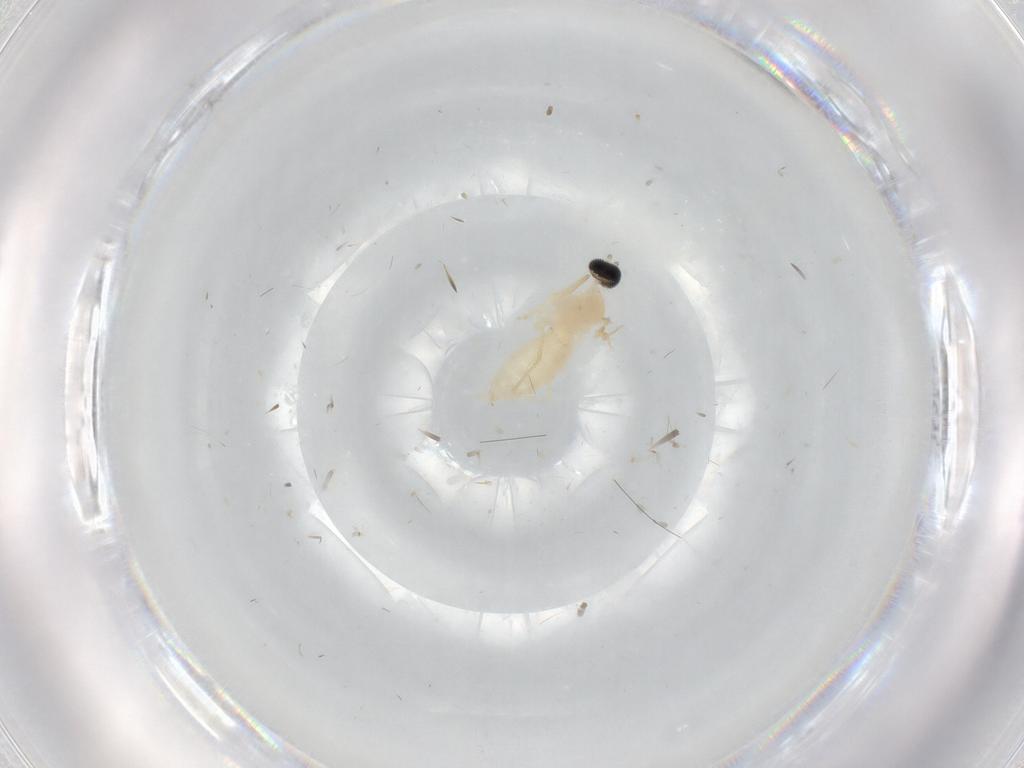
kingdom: Animalia
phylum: Arthropoda
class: Insecta
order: Diptera
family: Cecidomyiidae
